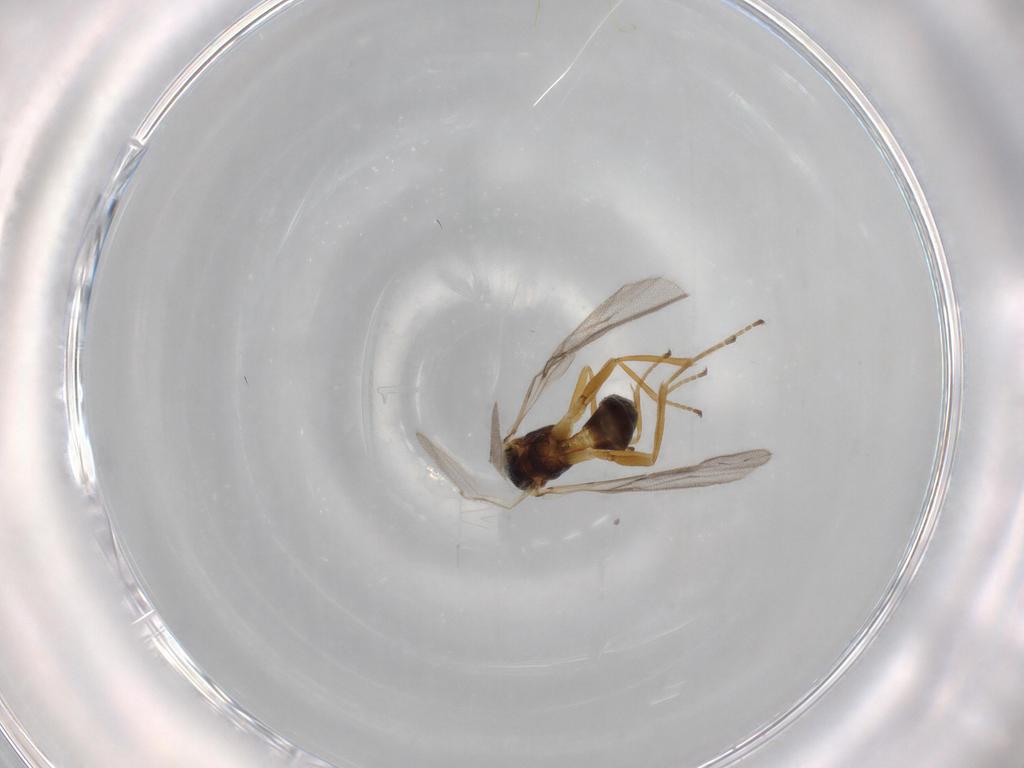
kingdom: Animalia
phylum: Arthropoda
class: Insecta
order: Hymenoptera
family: Braconidae
